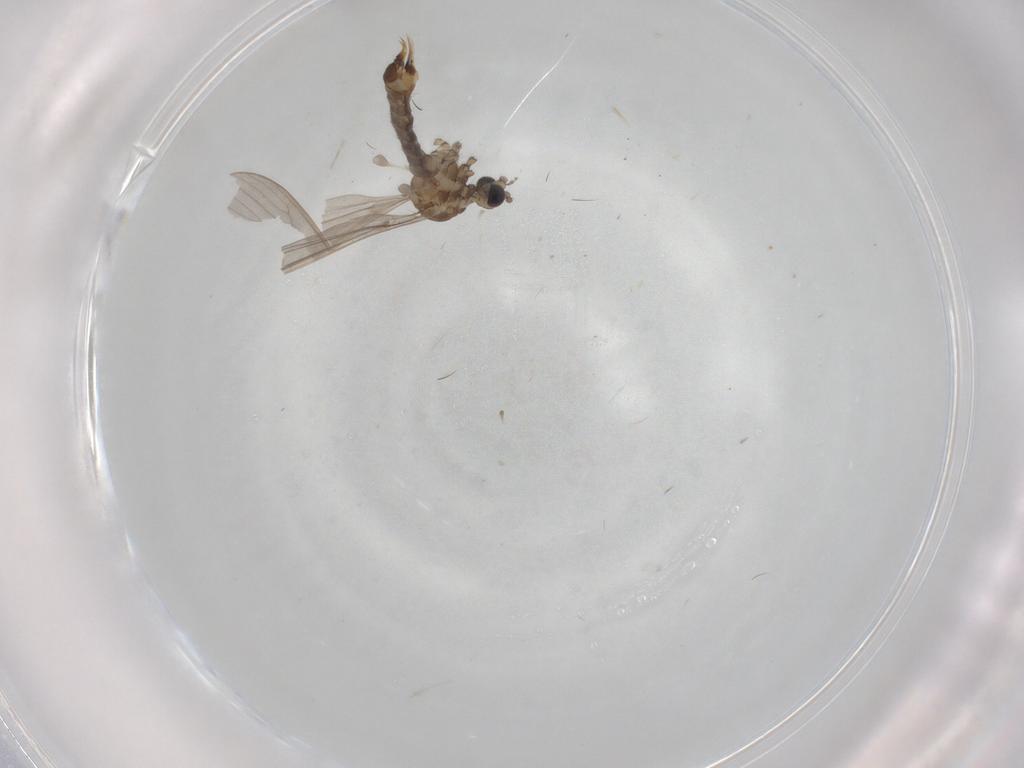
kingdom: Animalia
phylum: Arthropoda
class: Insecta
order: Diptera
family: Limoniidae
